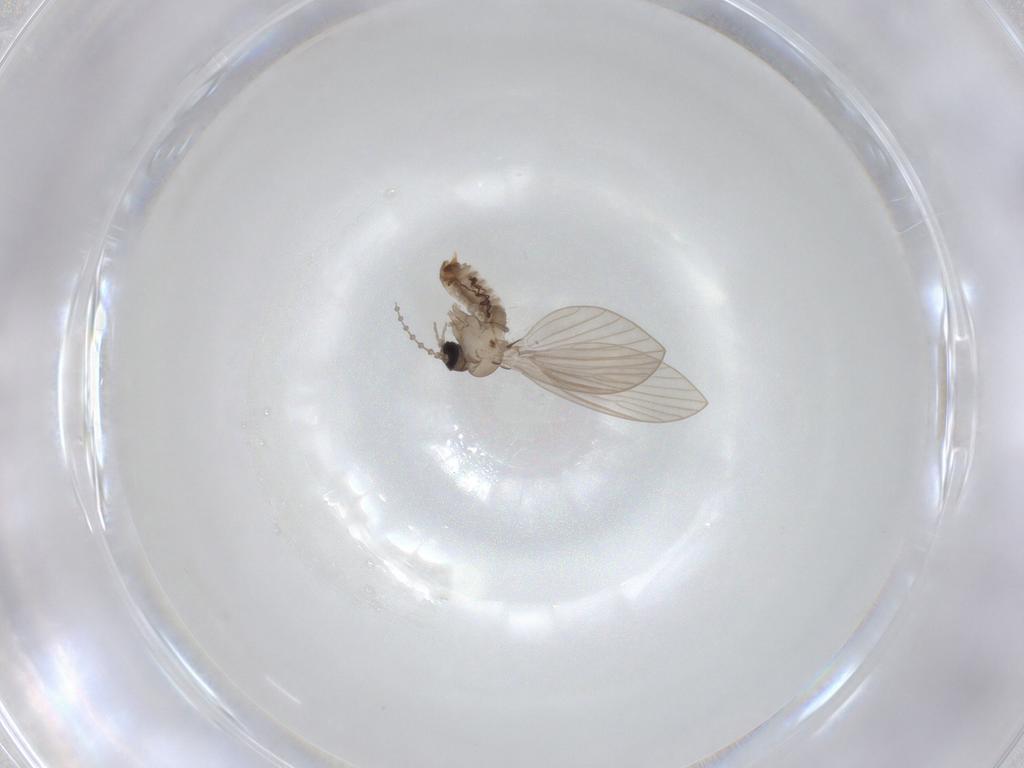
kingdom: Animalia
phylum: Arthropoda
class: Insecta
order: Diptera
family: Psychodidae
